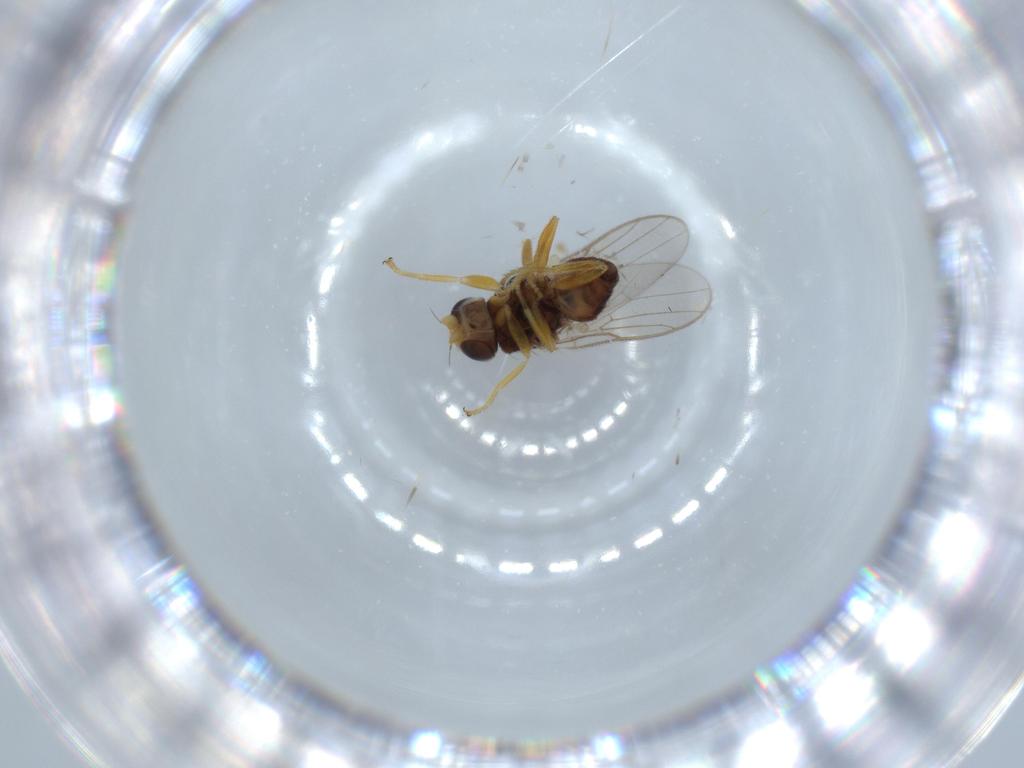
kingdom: Animalia
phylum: Arthropoda
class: Insecta
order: Diptera
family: Chloropidae
